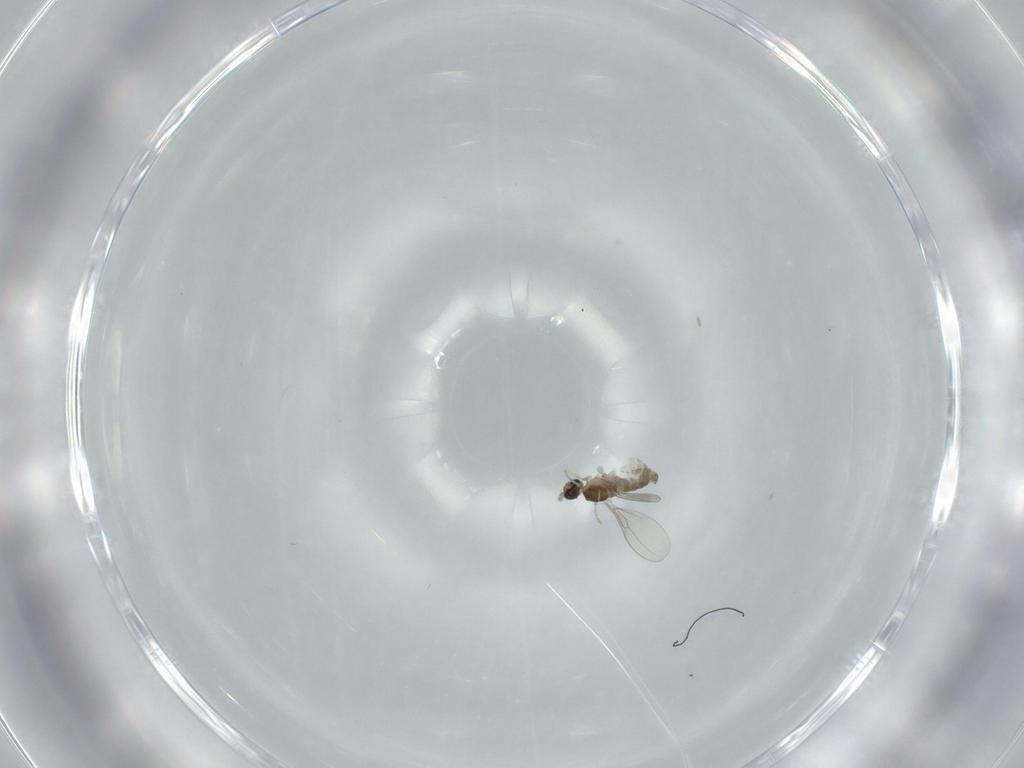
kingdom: Animalia
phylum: Arthropoda
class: Insecta
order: Diptera
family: Cecidomyiidae
